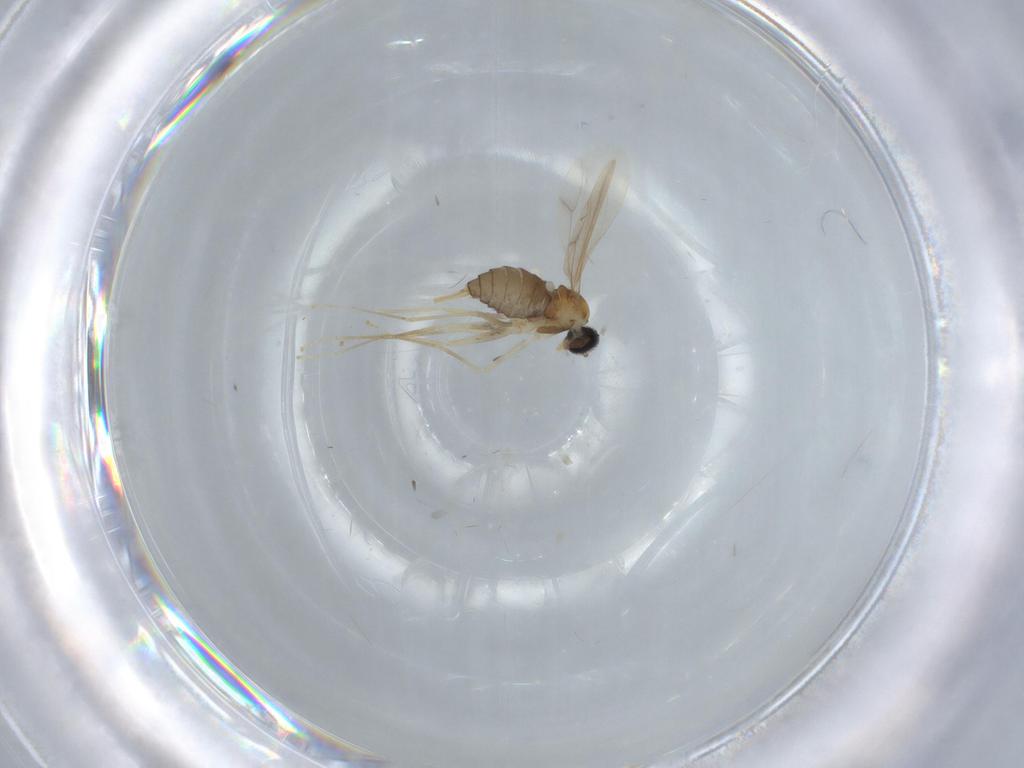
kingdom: Animalia
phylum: Arthropoda
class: Insecta
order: Diptera
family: Cecidomyiidae
